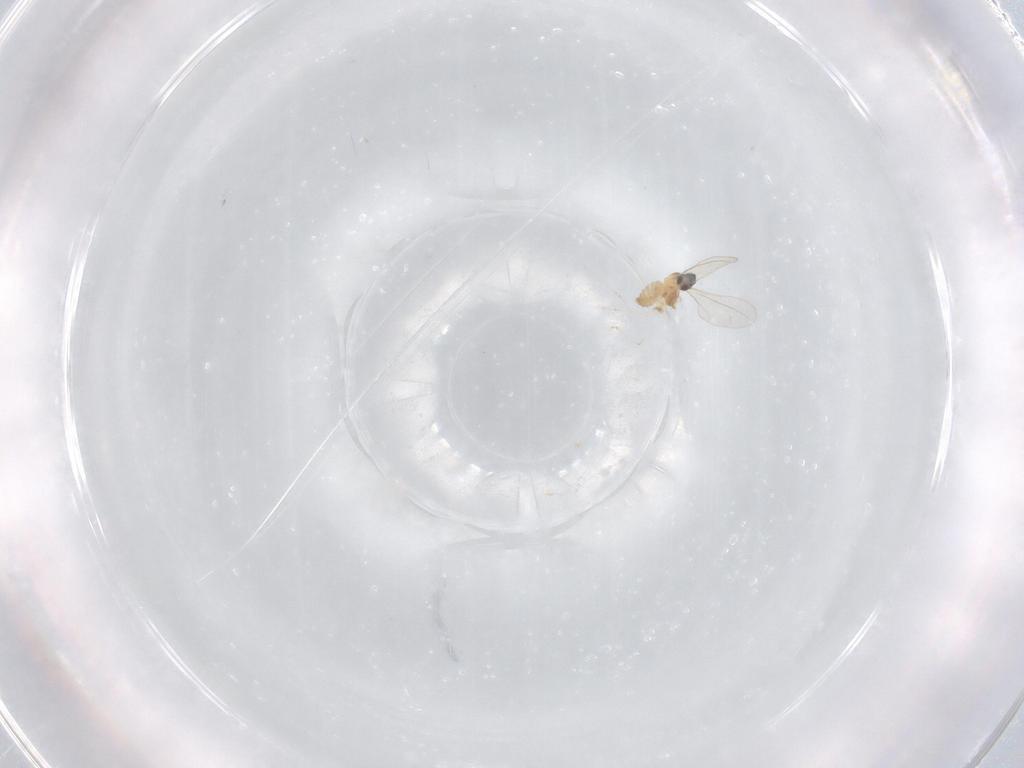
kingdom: Animalia
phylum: Arthropoda
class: Insecta
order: Diptera
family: Cecidomyiidae
